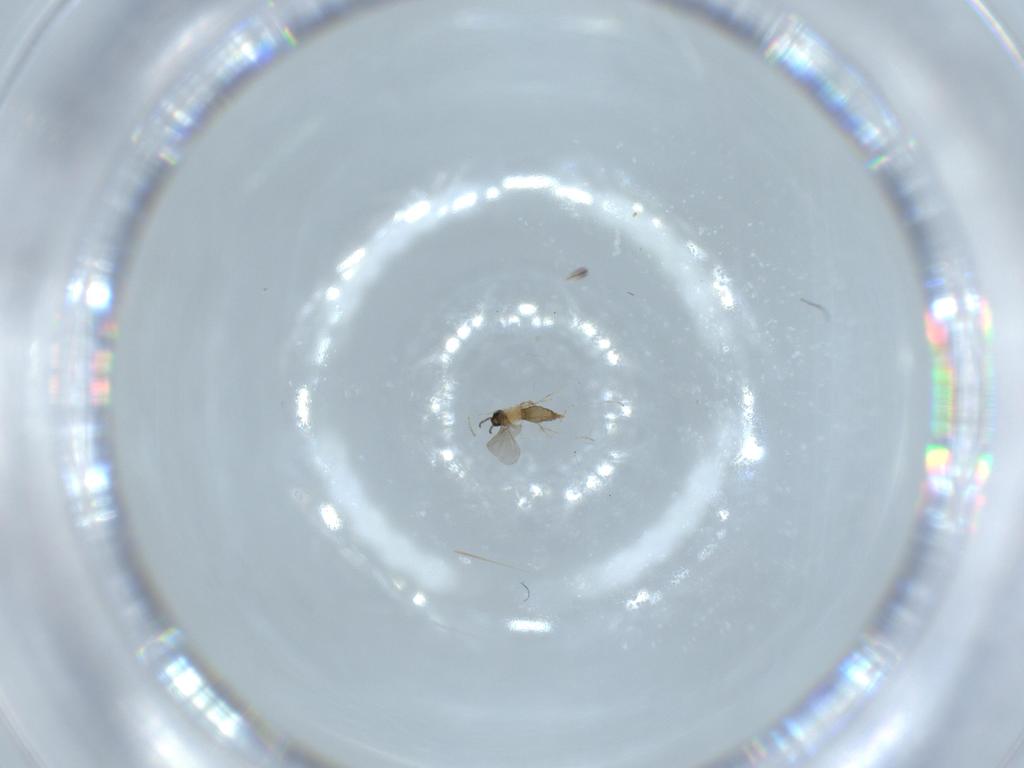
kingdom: Animalia
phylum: Arthropoda
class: Insecta
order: Diptera
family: Cecidomyiidae
